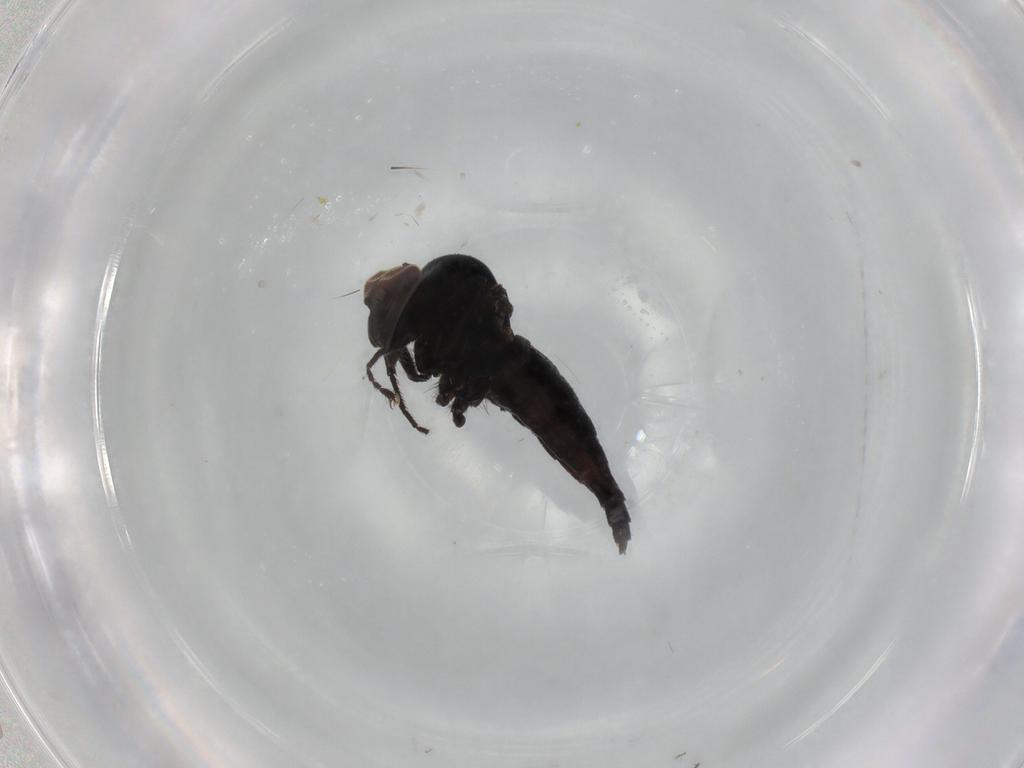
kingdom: Animalia
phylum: Arthropoda
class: Insecta
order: Diptera
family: Hybotidae
